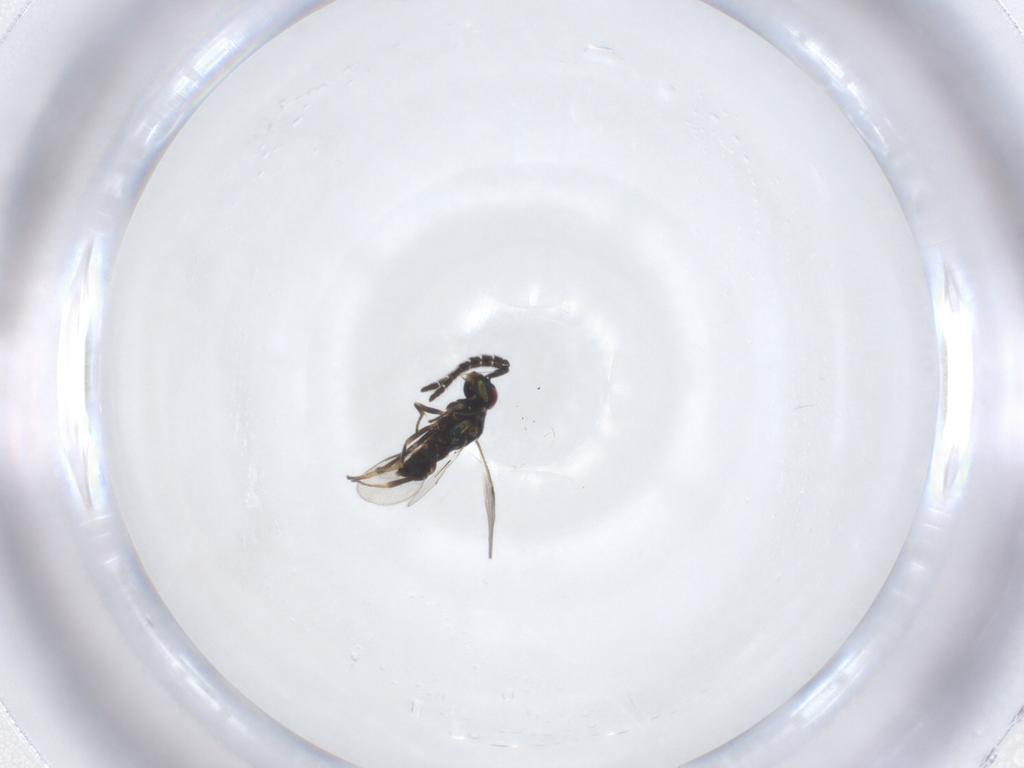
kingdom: Animalia
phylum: Arthropoda
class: Insecta
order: Hymenoptera
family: Encyrtidae
